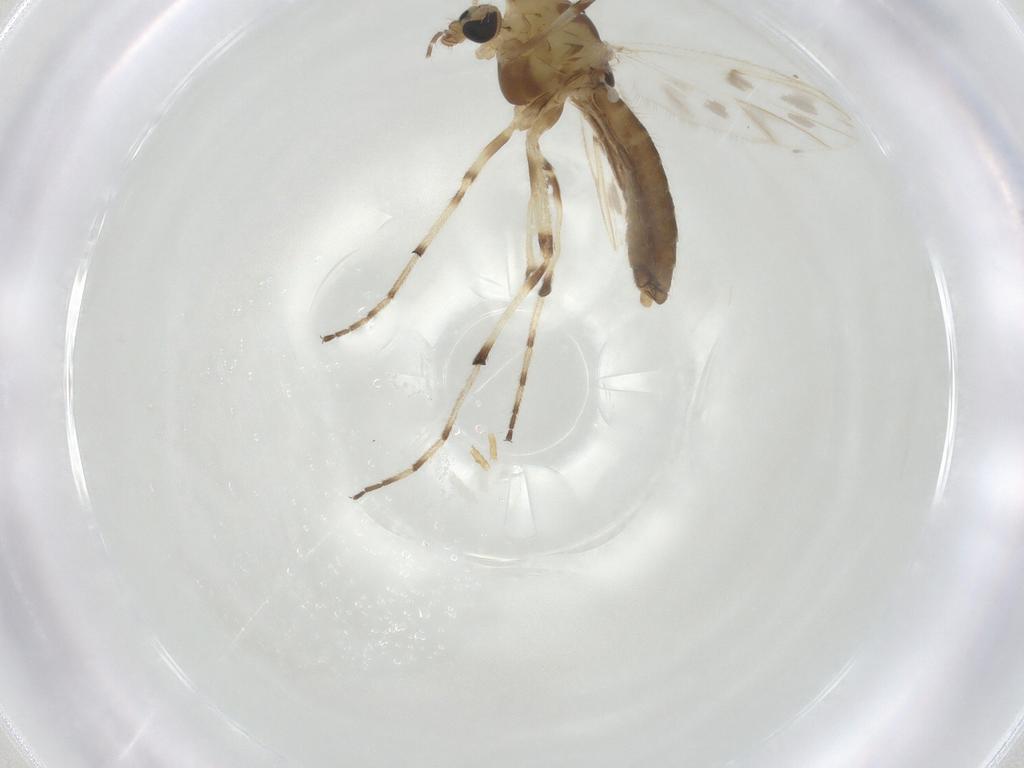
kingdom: Animalia
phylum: Arthropoda
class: Insecta
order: Diptera
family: Chironomidae
